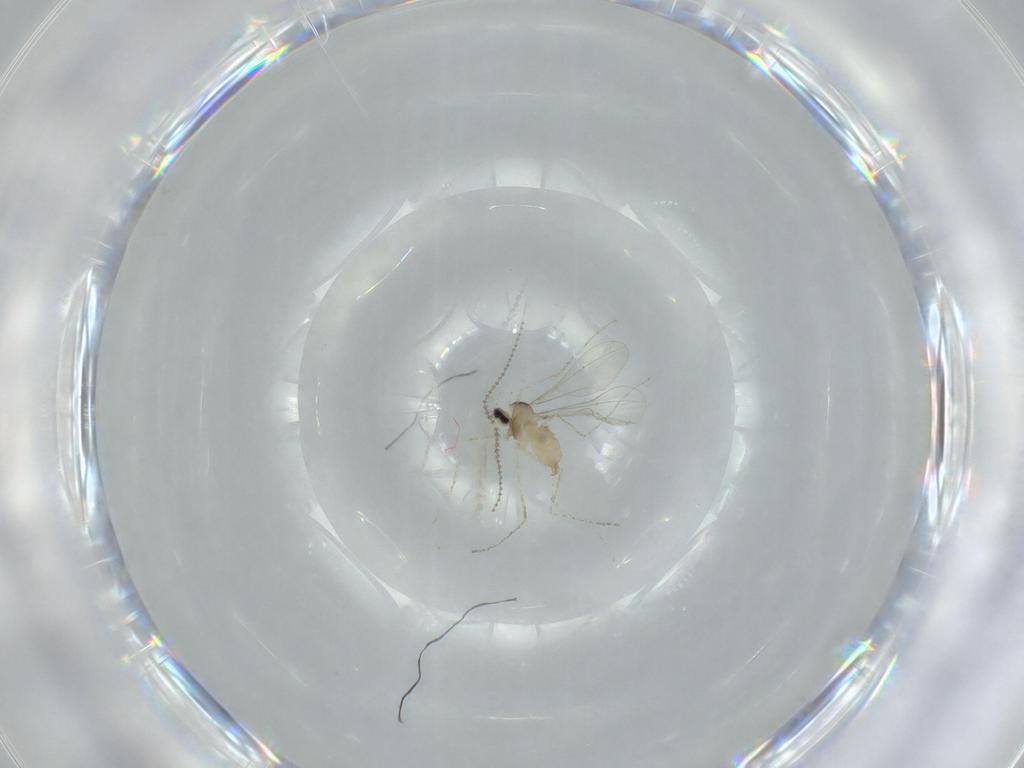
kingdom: Animalia
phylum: Arthropoda
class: Insecta
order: Diptera
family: Cecidomyiidae
